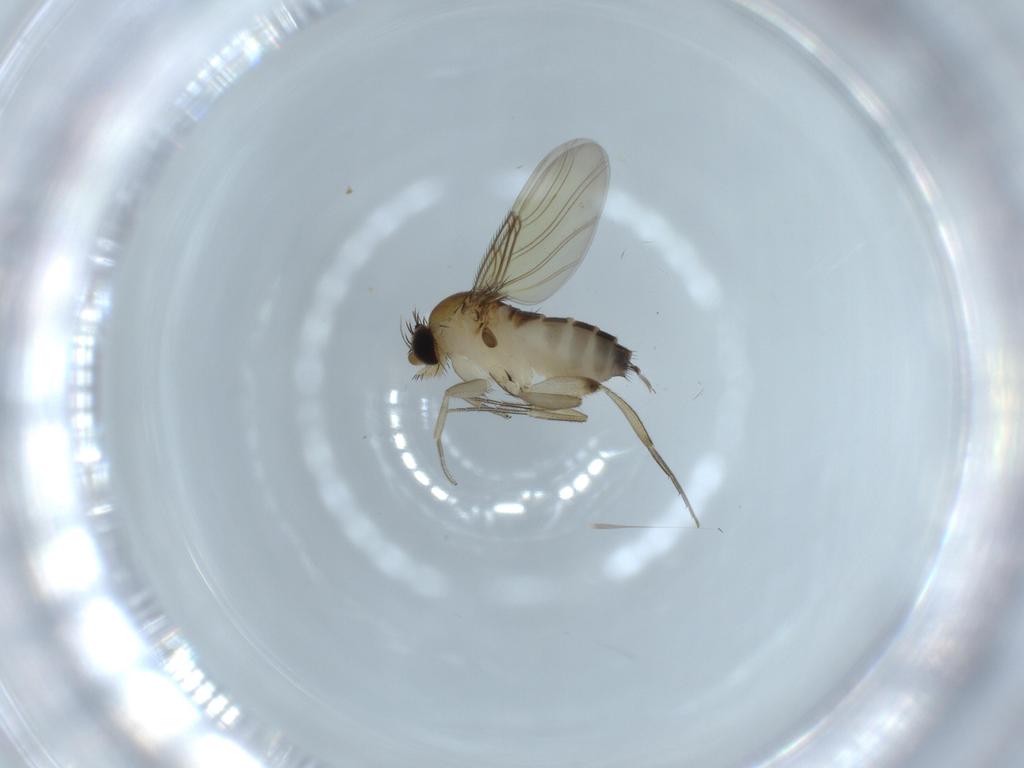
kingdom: Animalia
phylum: Arthropoda
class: Insecta
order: Diptera
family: Phoridae
